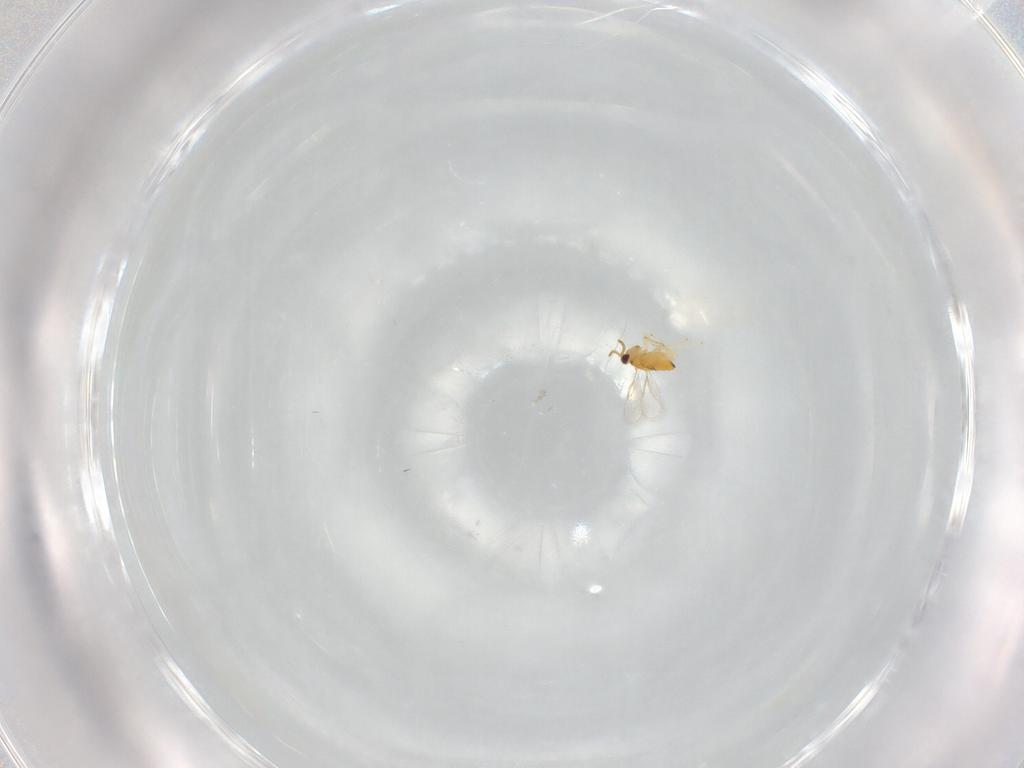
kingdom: Animalia
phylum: Arthropoda
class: Insecta
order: Hymenoptera
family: Aphelinidae
